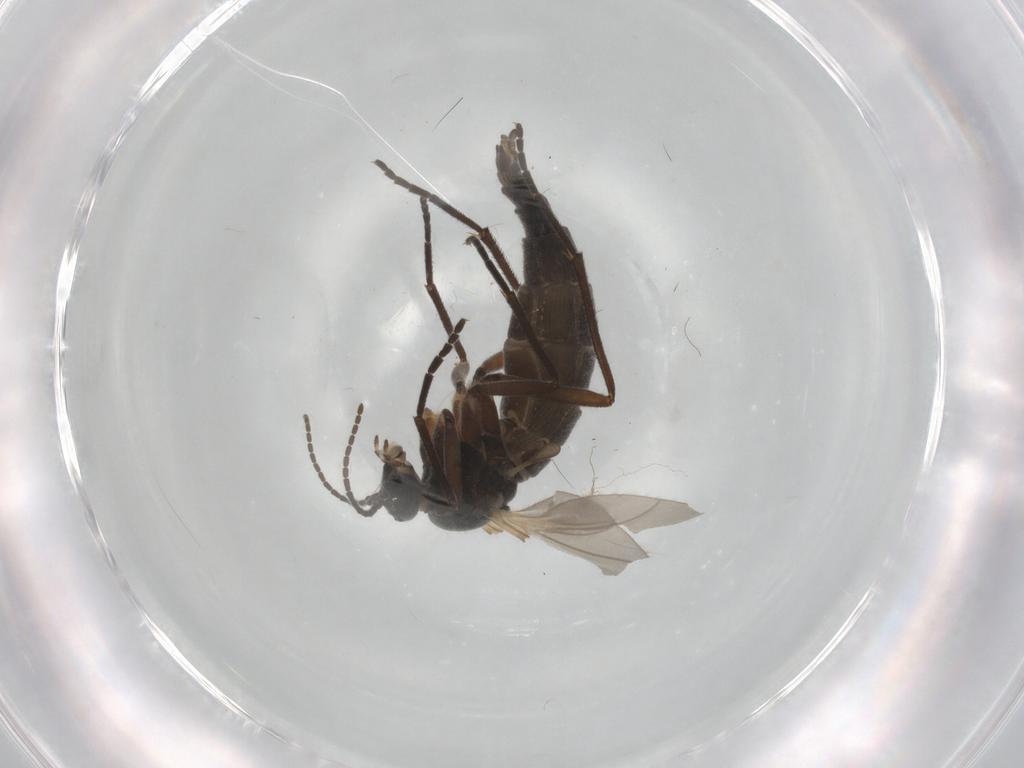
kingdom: Animalia
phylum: Arthropoda
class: Insecta
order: Diptera
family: Sciaridae
